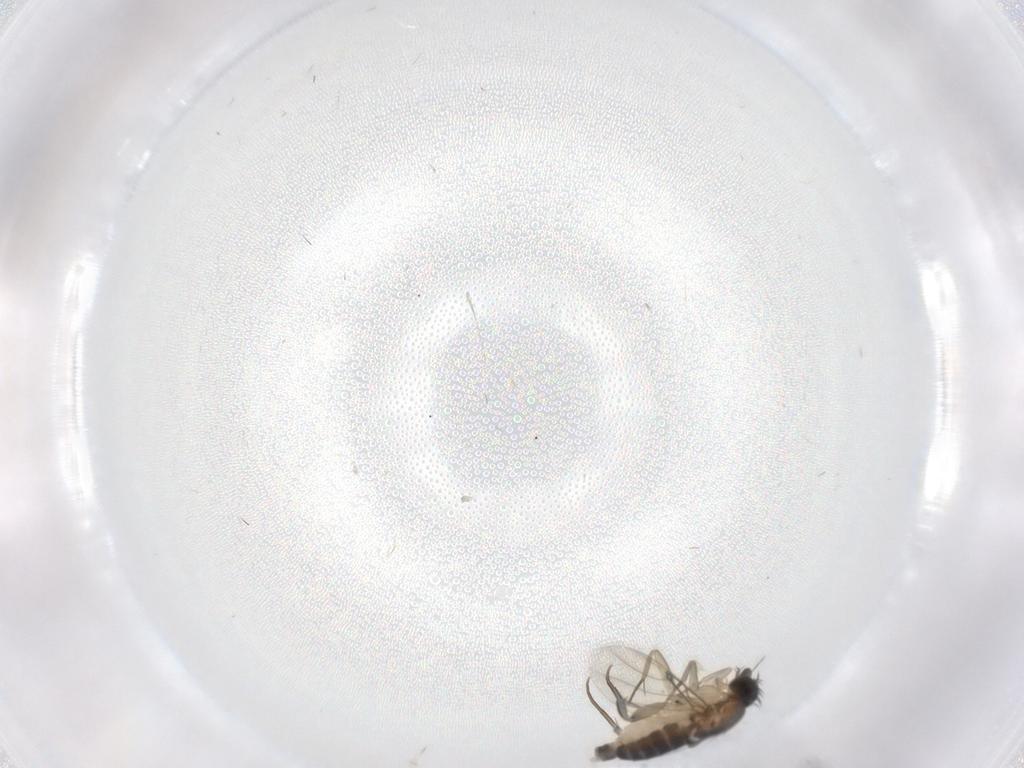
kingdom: Animalia
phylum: Arthropoda
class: Insecta
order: Diptera
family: Phoridae
